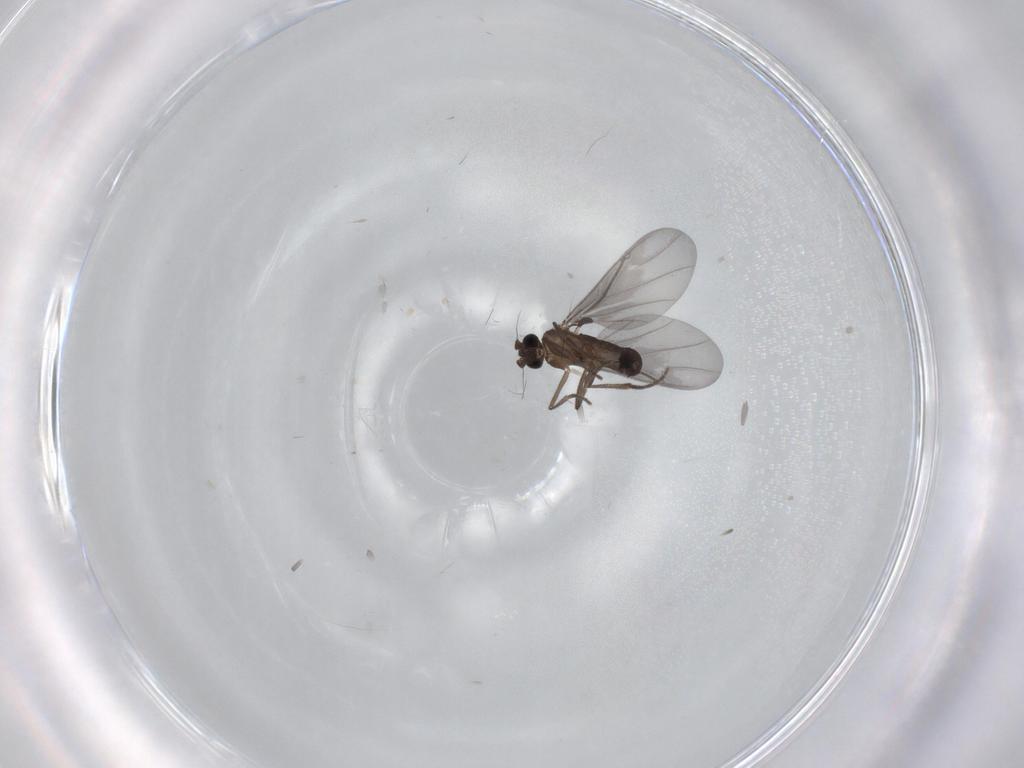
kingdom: Animalia
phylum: Arthropoda
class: Insecta
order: Diptera
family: Phoridae
